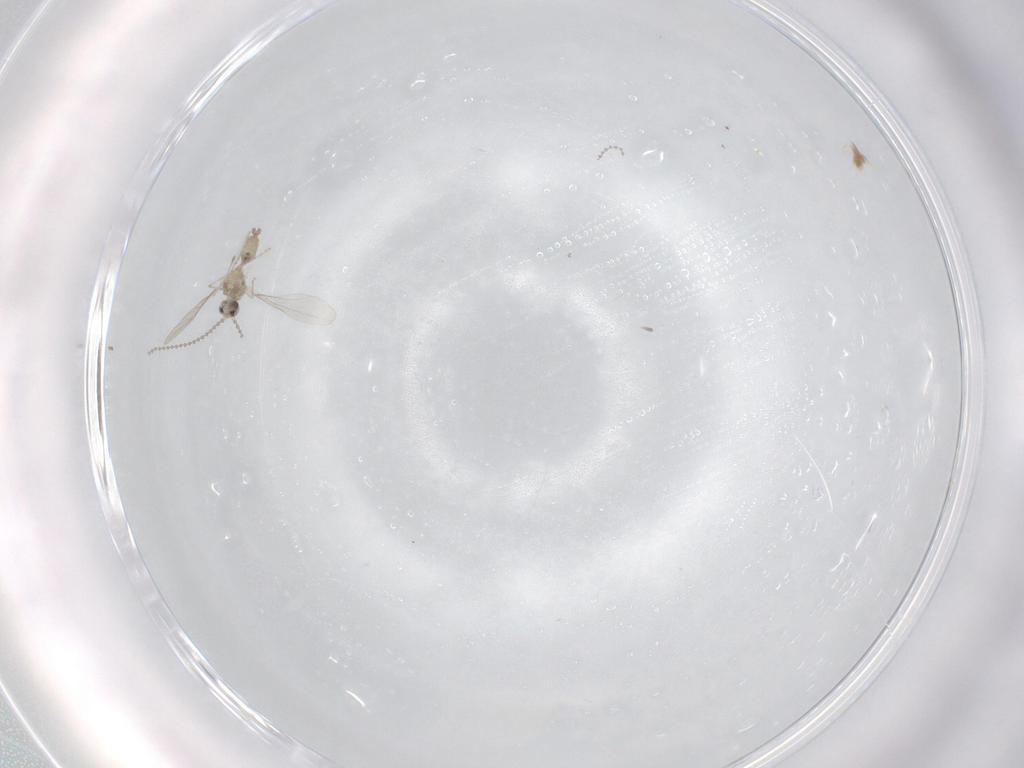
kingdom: Animalia
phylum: Arthropoda
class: Insecta
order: Diptera
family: Cecidomyiidae
